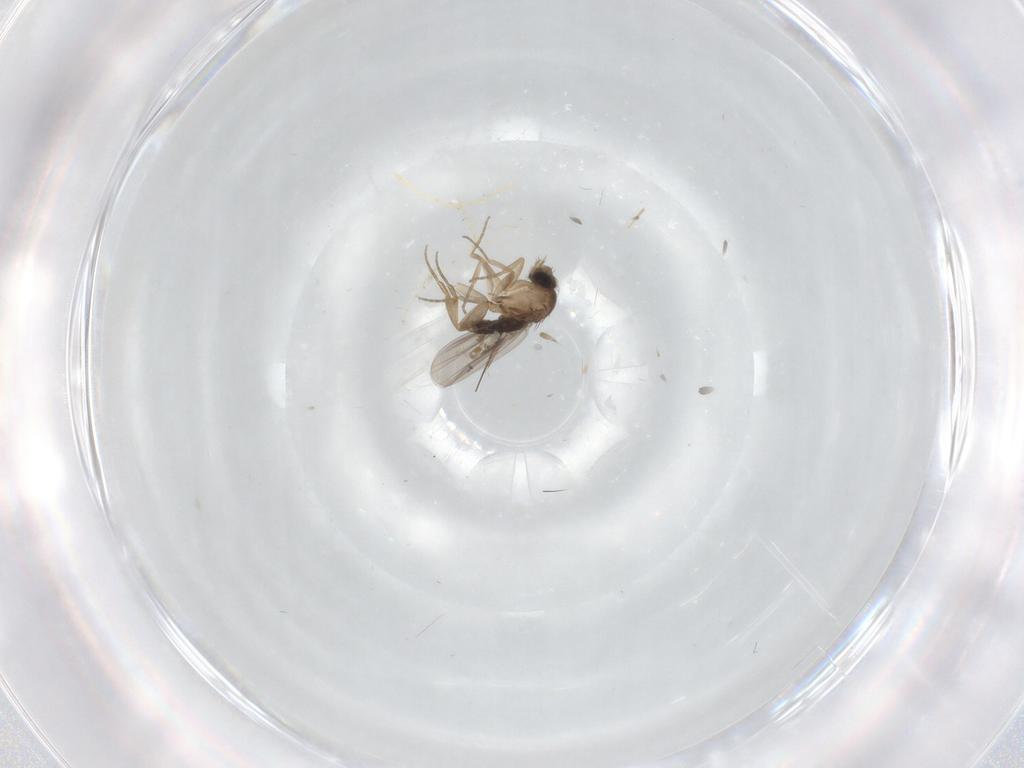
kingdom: Animalia
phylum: Arthropoda
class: Insecta
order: Diptera
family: Phoridae
